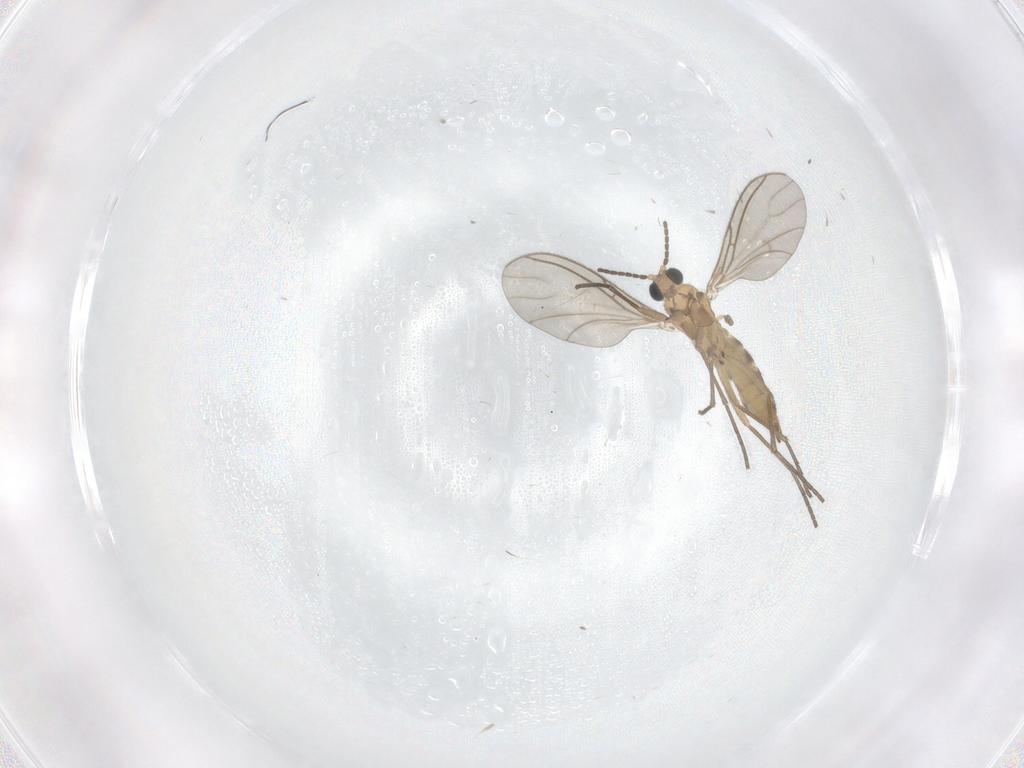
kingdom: Animalia
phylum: Arthropoda
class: Insecta
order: Diptera
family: Sciaridae
